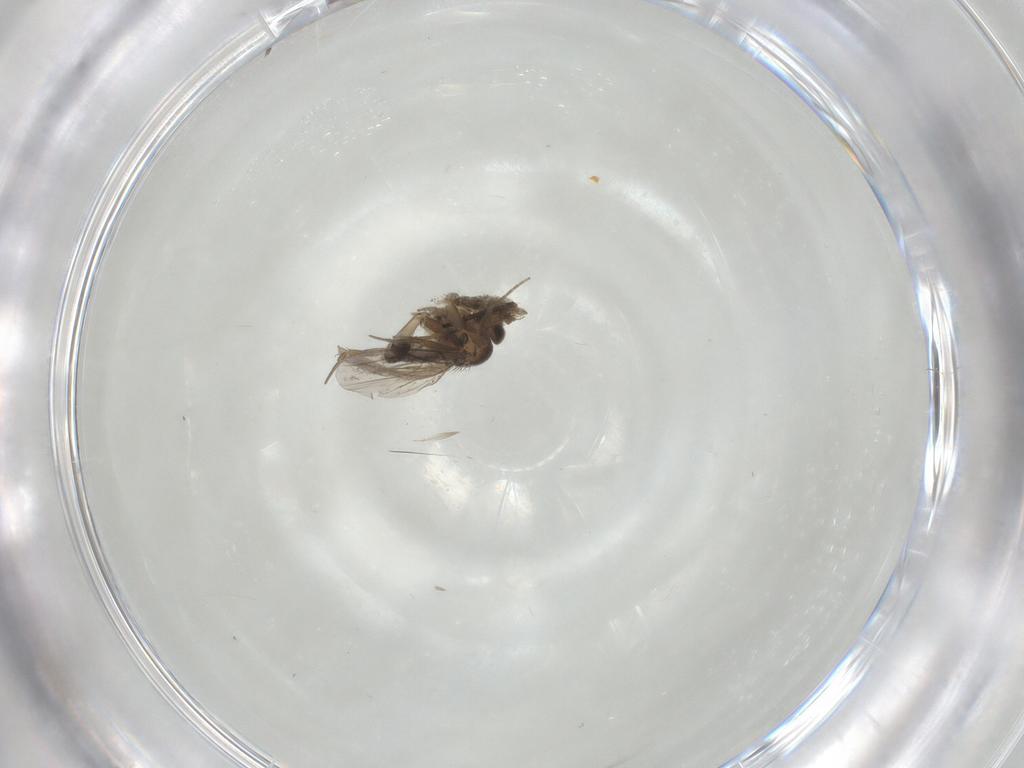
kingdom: Animalia
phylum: Arthropoda
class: Insecta
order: Diptera
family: Phoridae
